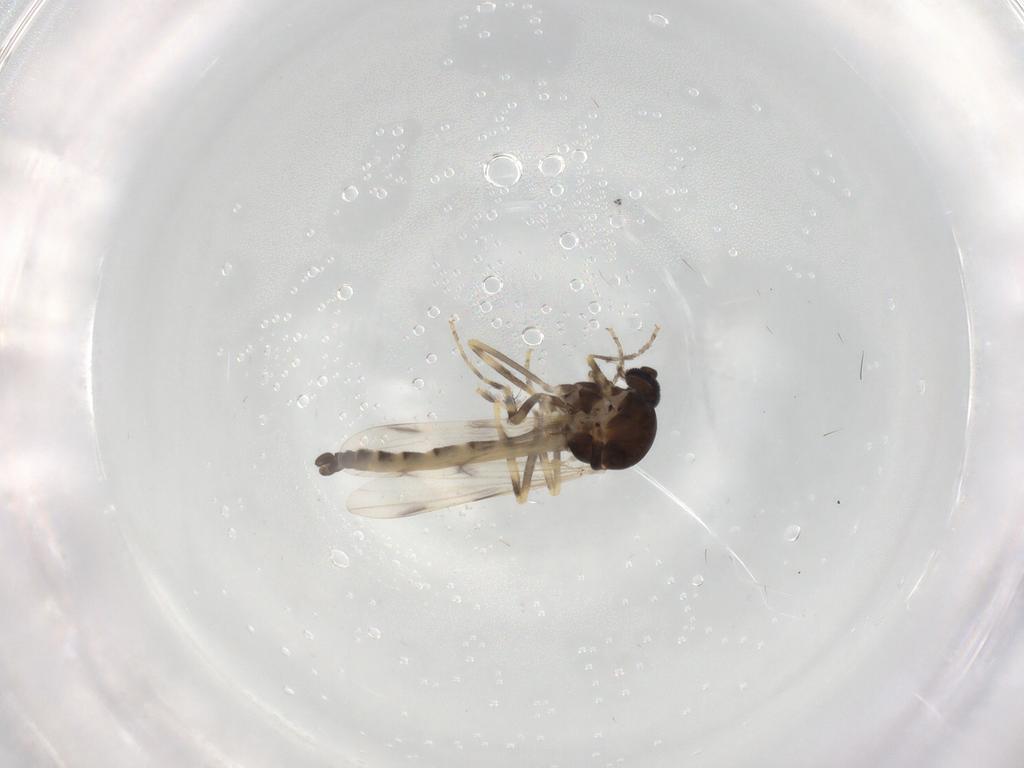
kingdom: Animalia
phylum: Arthropoda
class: Insecta
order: Diptera
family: Ceratopogonidae
